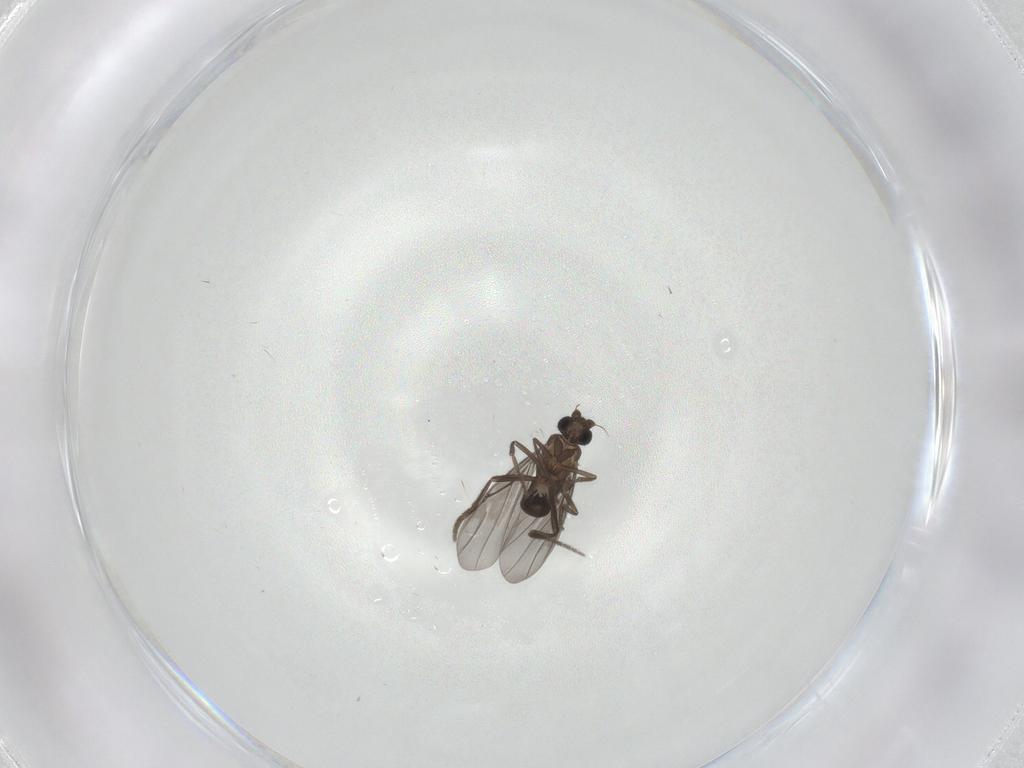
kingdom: Animalia
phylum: Arthropoda
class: Insecta
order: Diptera
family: Phoridae
